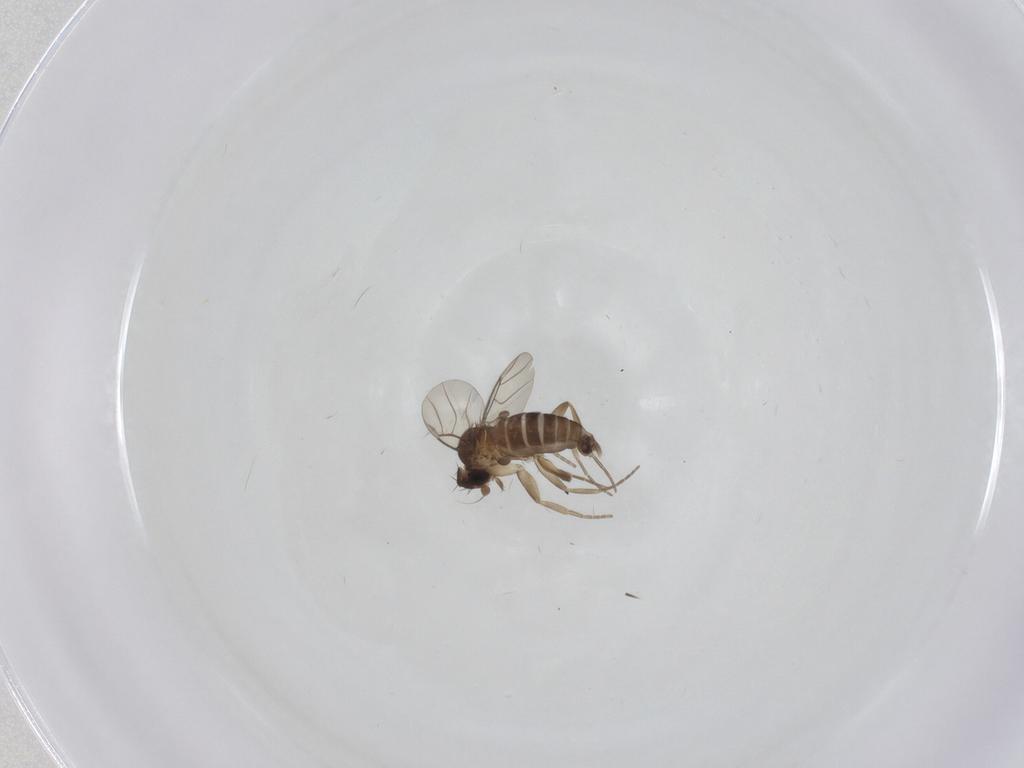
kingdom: Animalia
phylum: Arthropoda
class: Insecta
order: Diptera
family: Phoridae
